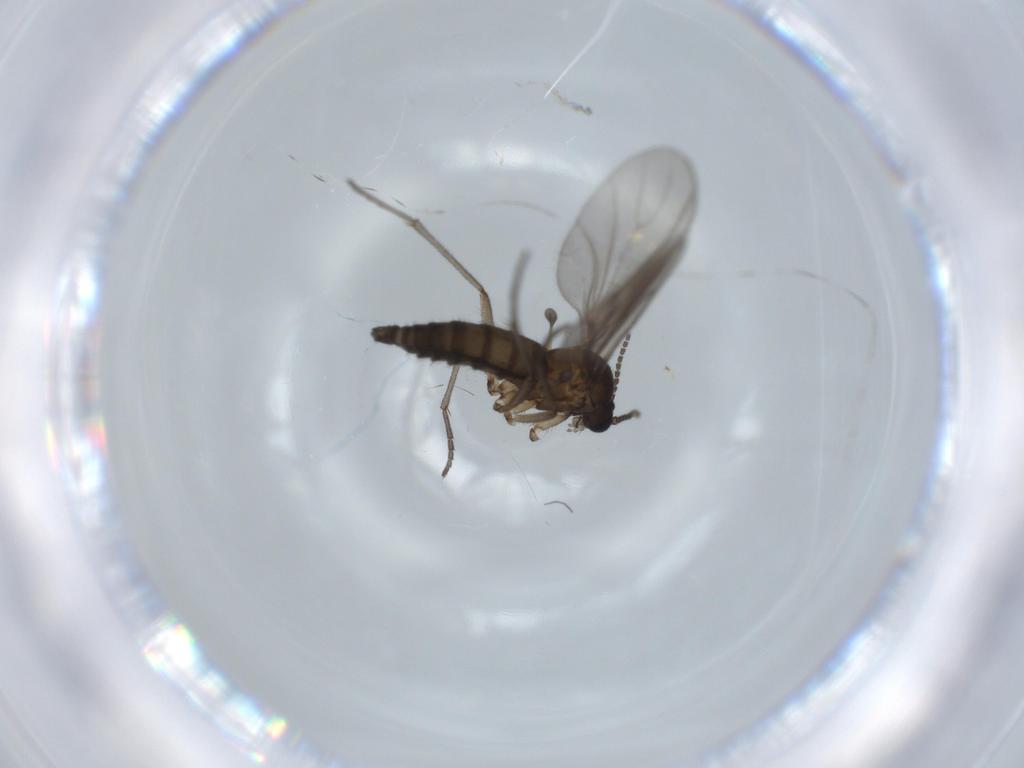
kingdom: Animalia
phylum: Arthropoda
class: Insecta
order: Diptera
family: Sciaridae
